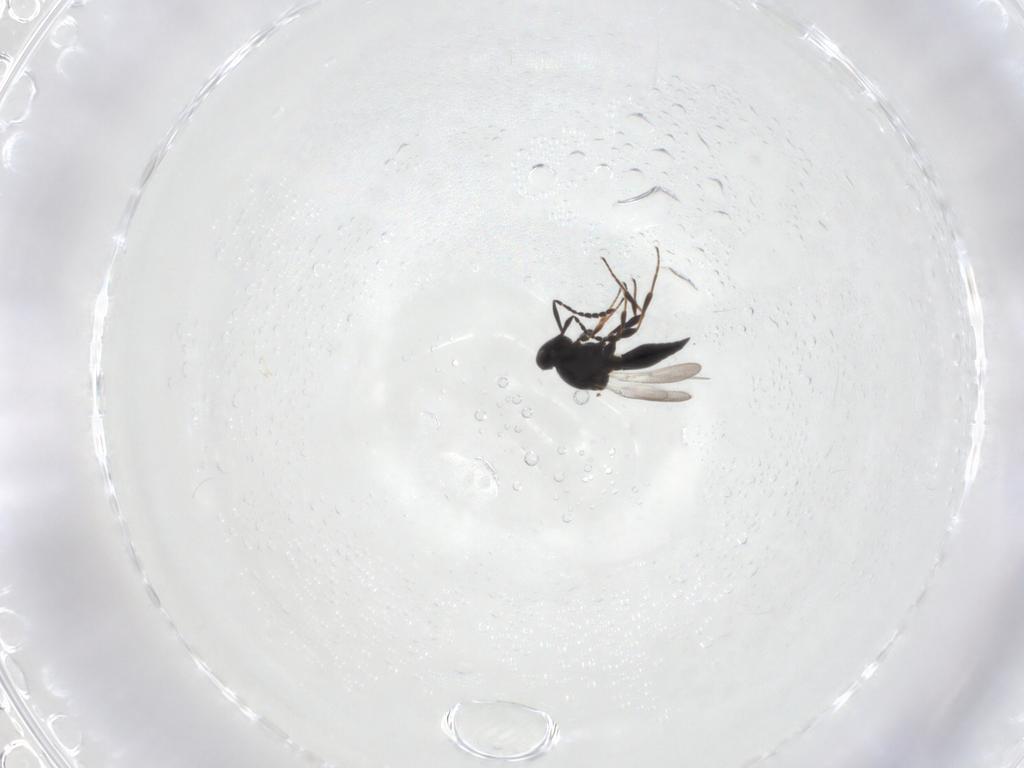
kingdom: Animalia
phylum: Arthropoda
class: Insecta
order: Hymenoptera
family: Platygastridae
